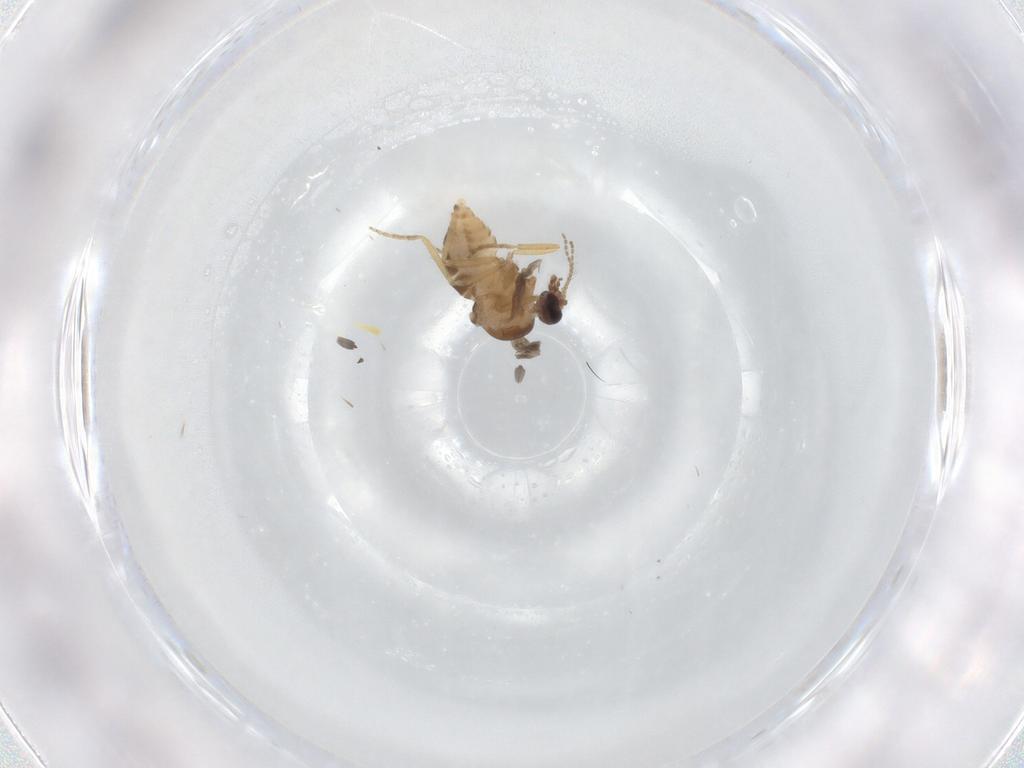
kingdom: Animalia
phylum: Arthropoda
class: Insecta
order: Diptera
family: Ceratopogonidae
